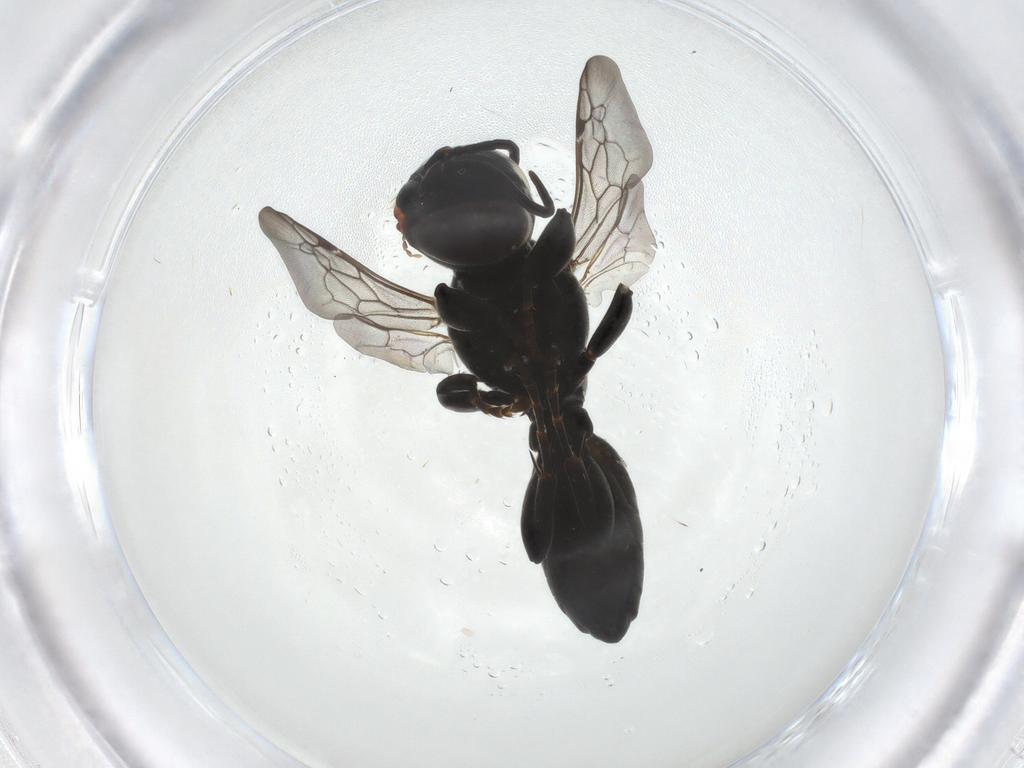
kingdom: Animalia
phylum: Arthropoda
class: Insecta
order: Hymenoptera
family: Crabronidae
